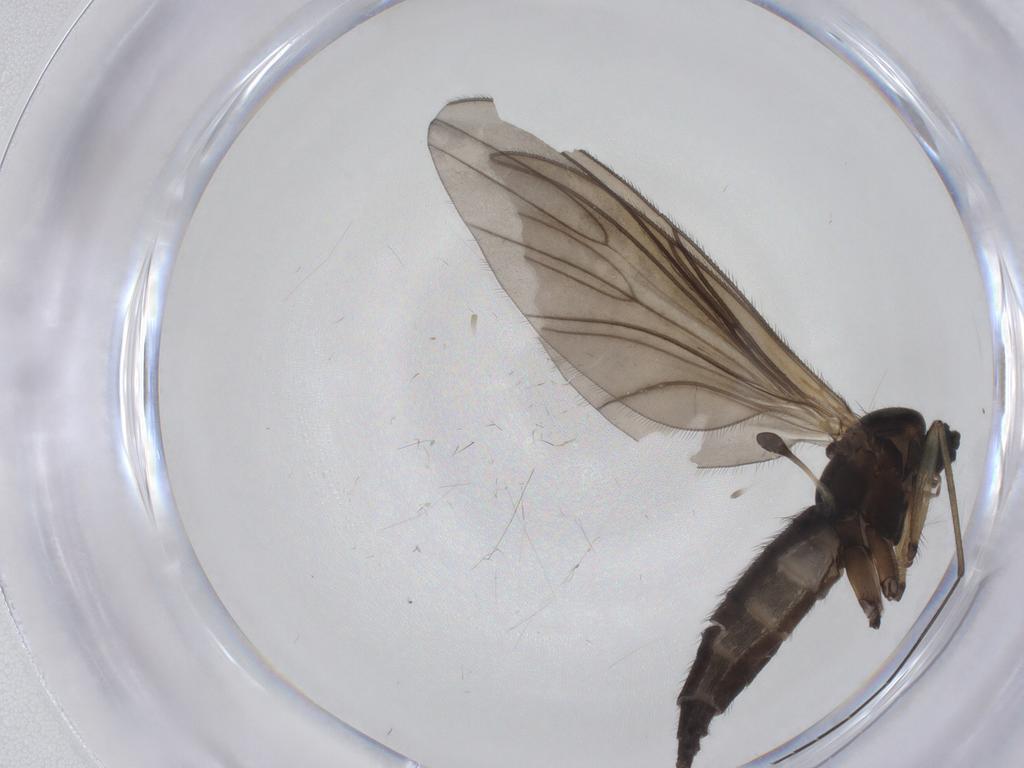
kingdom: Animalia
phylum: Arthropoda
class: Insecta
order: Diptera
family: Sciaridae
